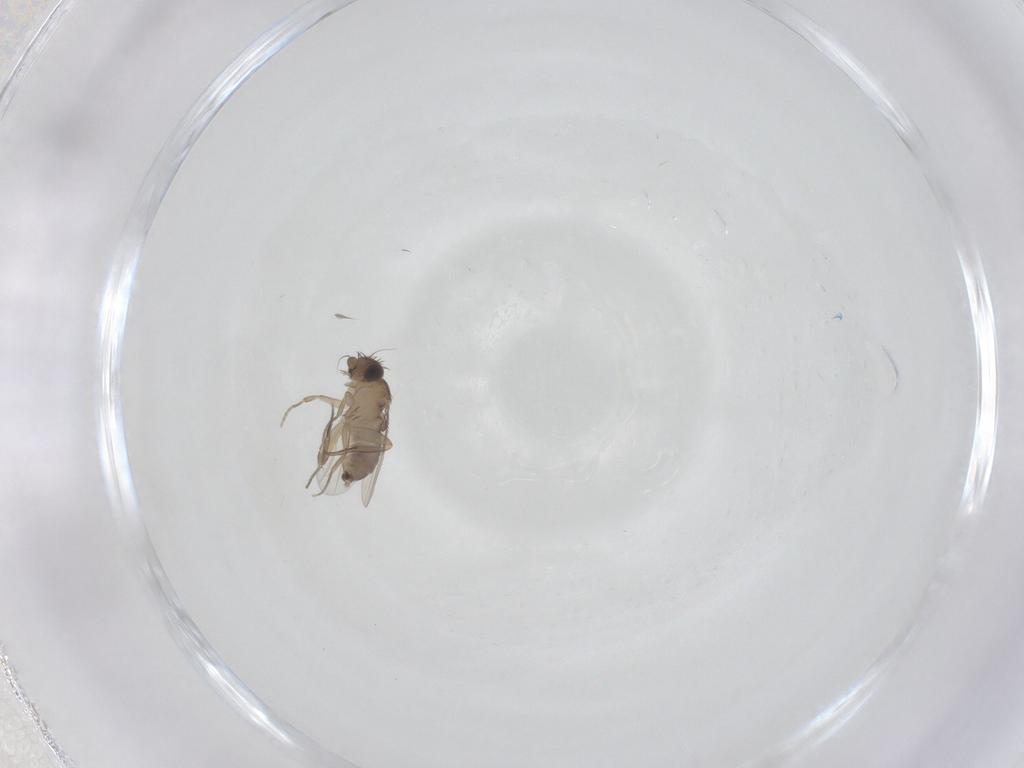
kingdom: Animalia
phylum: Arthropoda
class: Insecta
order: Diptera
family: Phoridae
